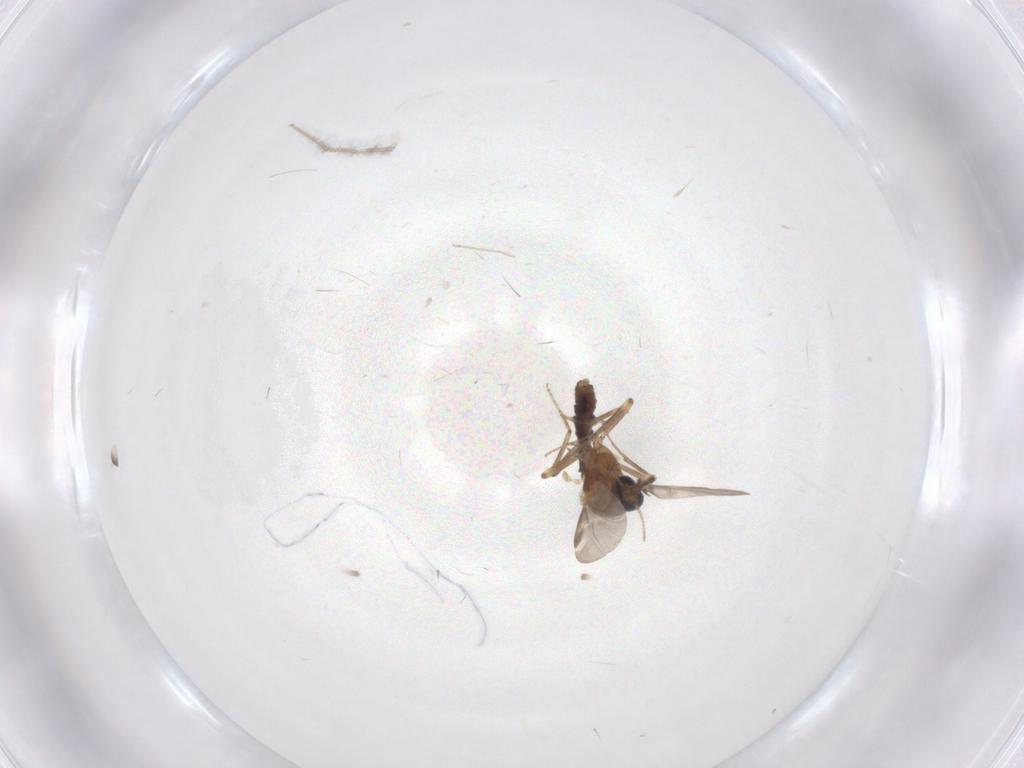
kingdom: Animalia
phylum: Arthropoda
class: Insecta
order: Diptera
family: Ceratopogonidae
